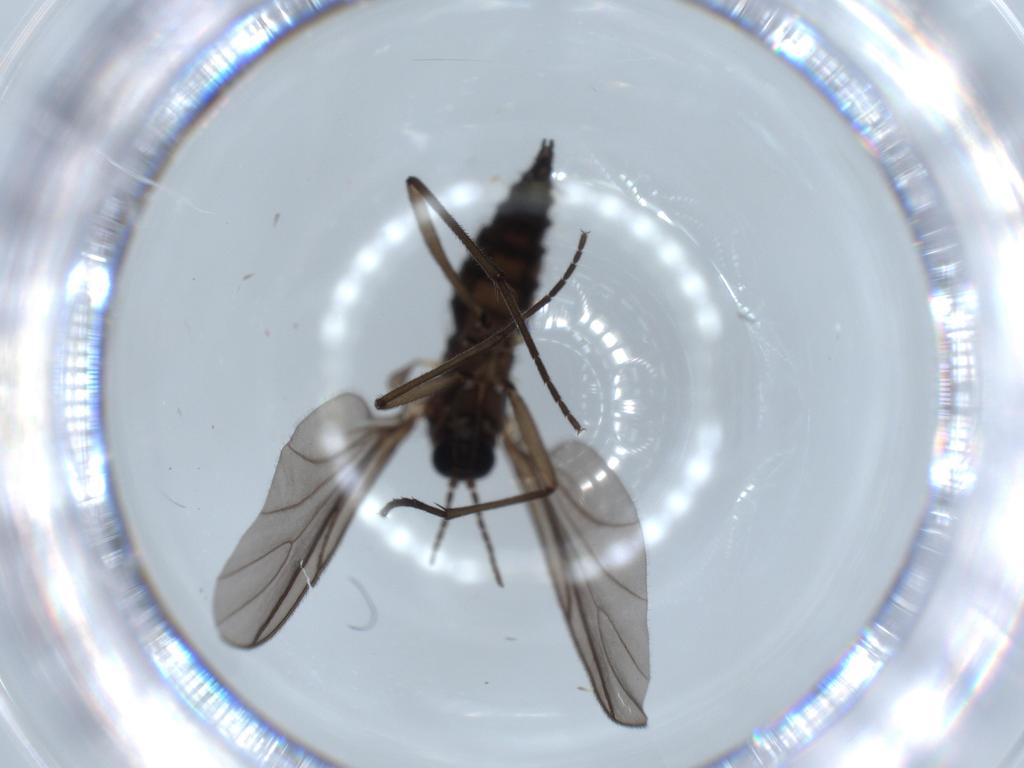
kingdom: Animalia
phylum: Arthropoda
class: Insecta
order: Diptera
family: Sciaridae
